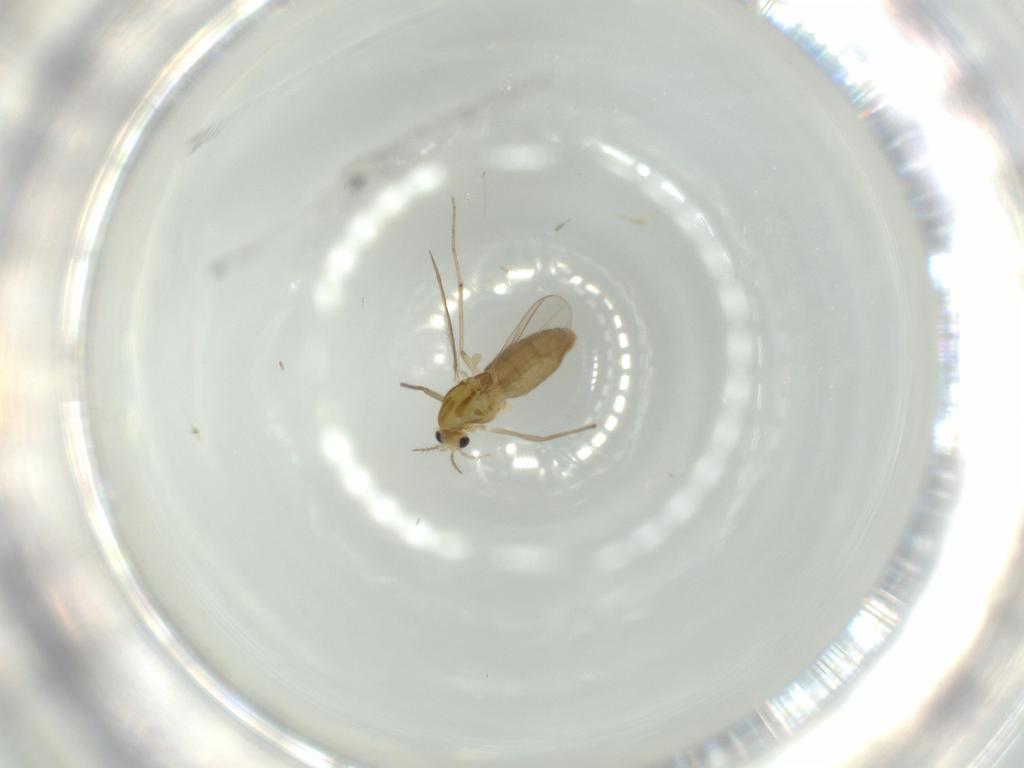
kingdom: Animalia
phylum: Arthropoda
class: Insecta
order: Diptera
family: Chironomidae
